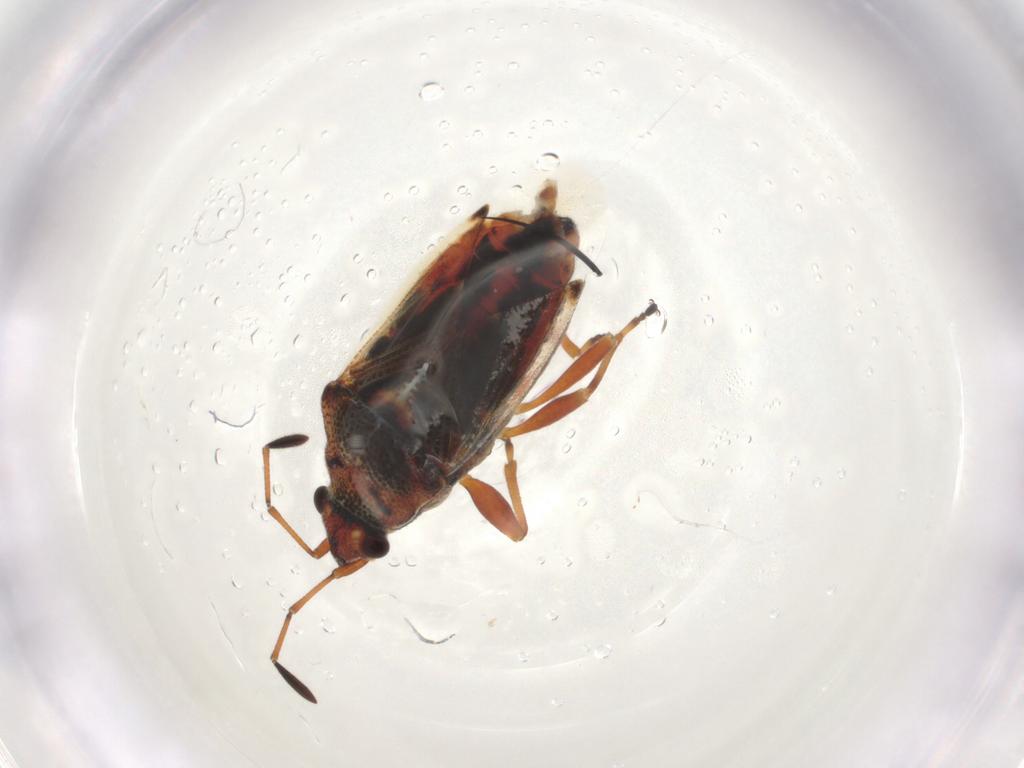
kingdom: Animalia
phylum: Arthropoda
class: Insecta
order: Hemiptera
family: Lygaeidae
